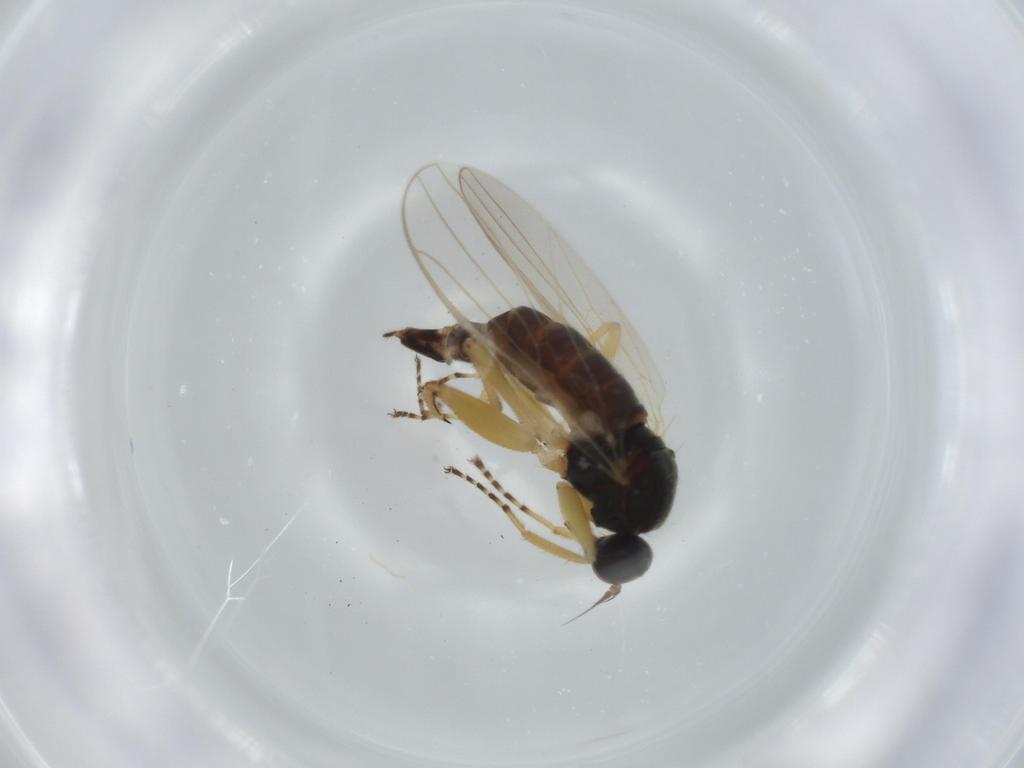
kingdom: Animalia
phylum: Arthropoda
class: Insecta
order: Diptera
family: Hybotidae
